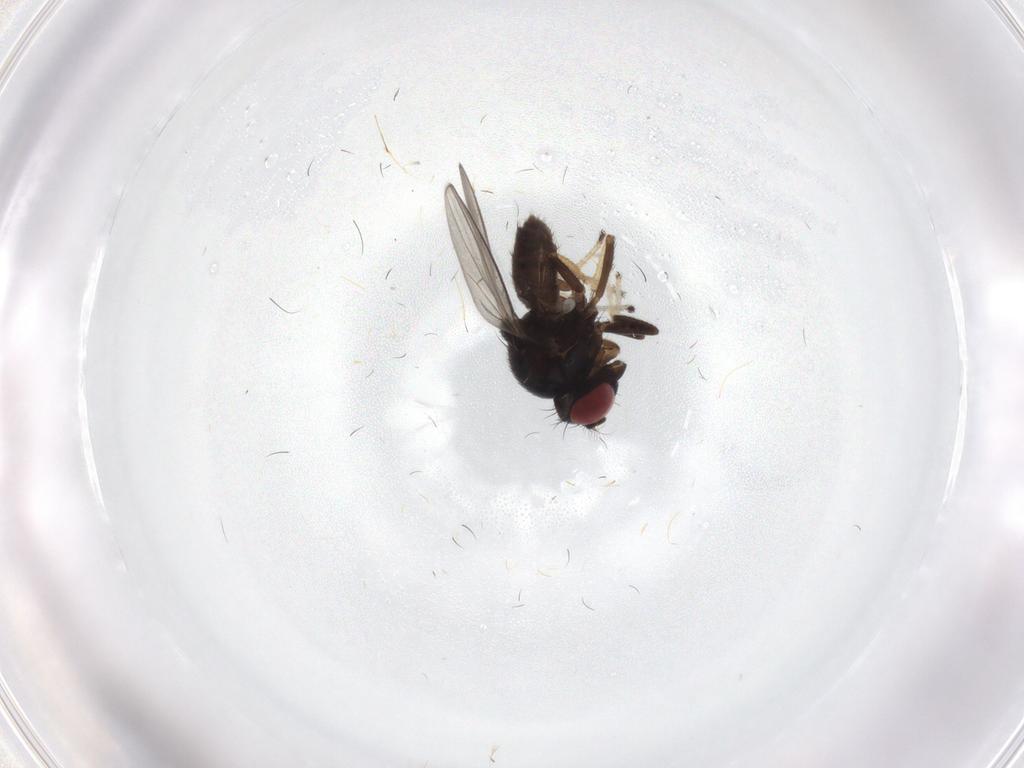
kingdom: Animalia
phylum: Arthropoda
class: Insecta
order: Diptera
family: Ephydridae
